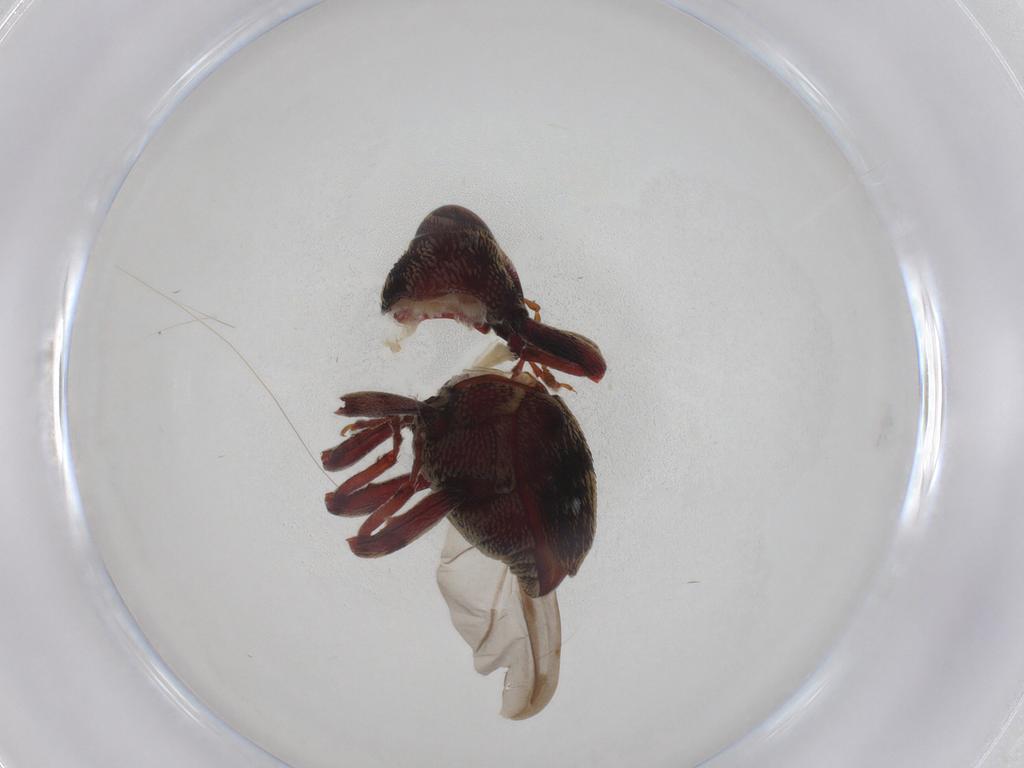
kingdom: Animalia
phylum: Arthropoda
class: Insecta
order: Coleoptera
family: Curculionidae
